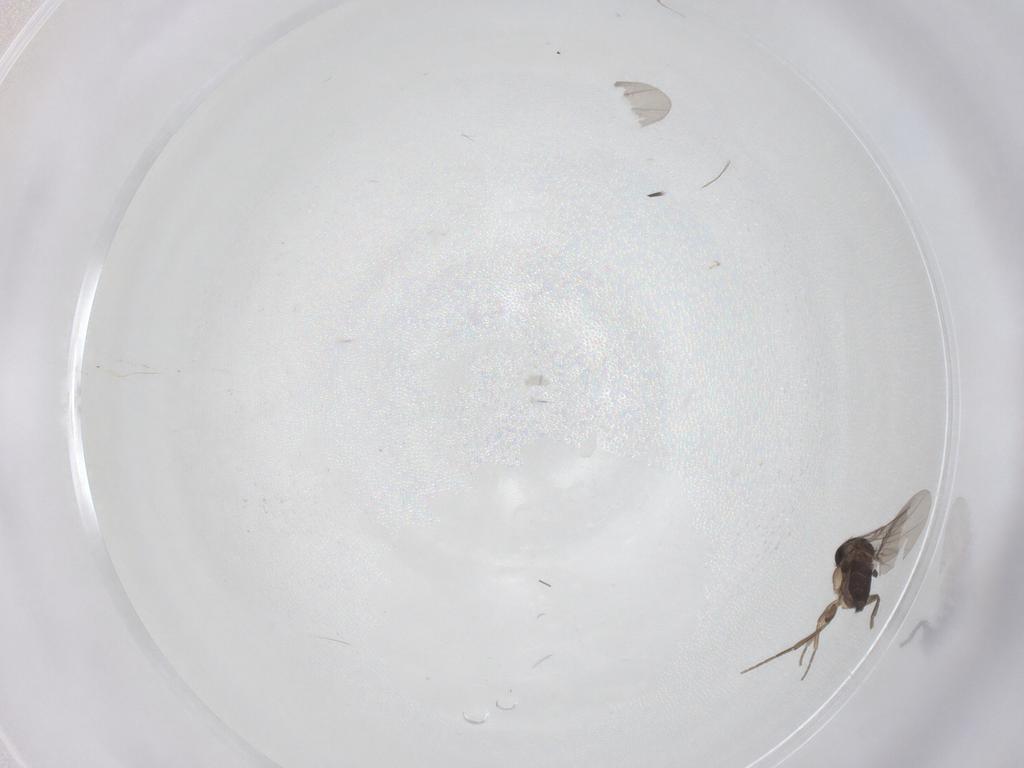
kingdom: Animalia
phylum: Arthropoda
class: Insecta
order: Diptera
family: Phoridae
